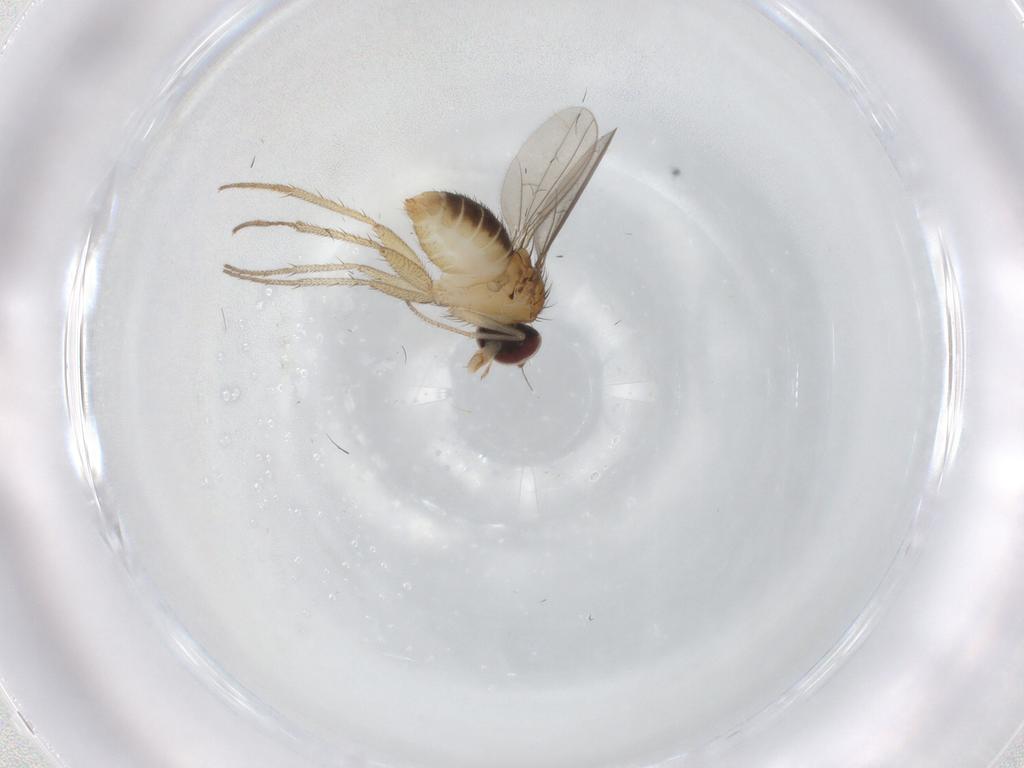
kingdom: Animalia
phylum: Arthropoda
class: Insecta
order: Diptera
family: Dolichopodidae
